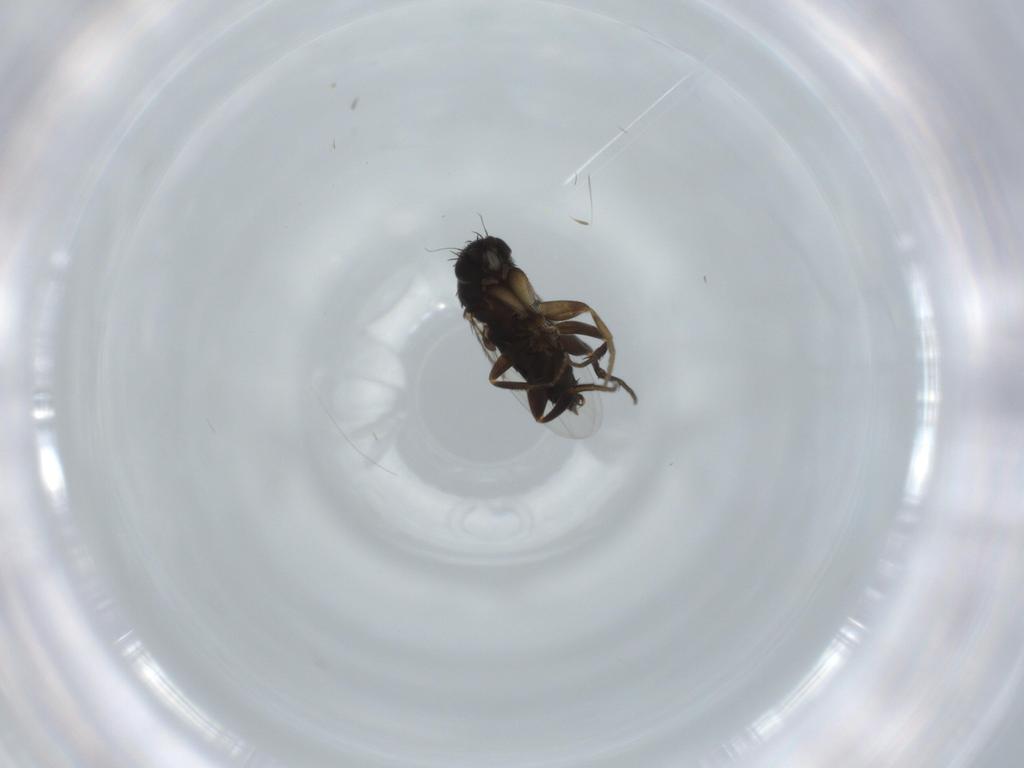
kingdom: Animalia
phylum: Arthropoda
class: Insecta
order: Diptera
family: Phoridae
